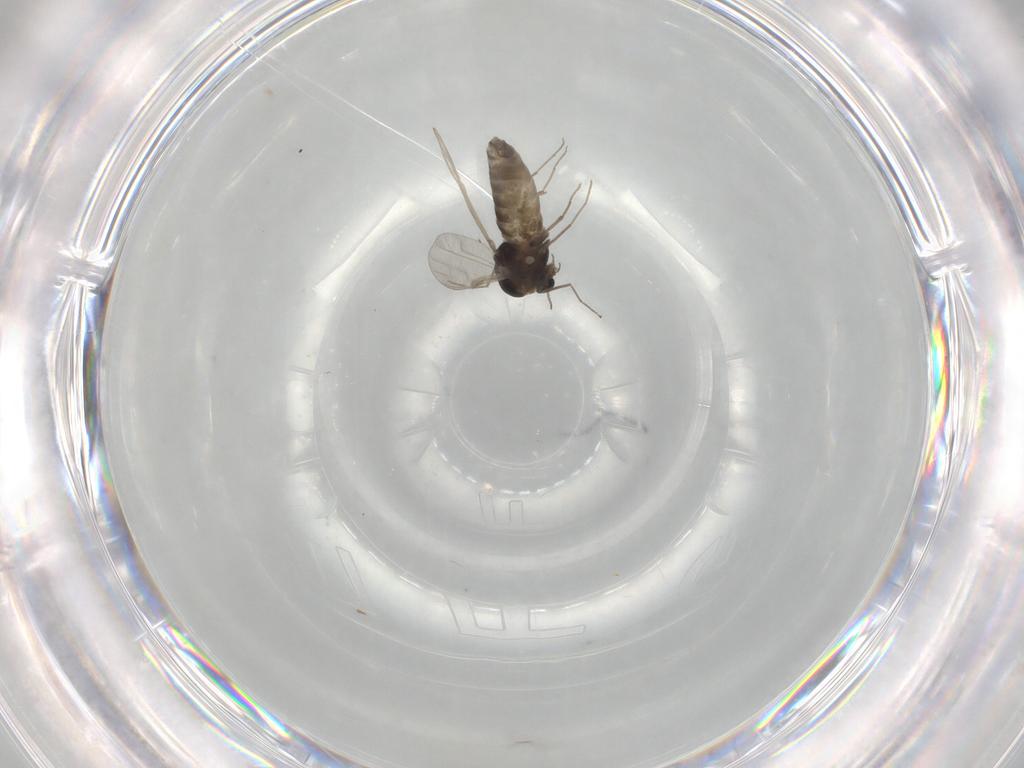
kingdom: Animalia
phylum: Arthropoda
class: Insecta
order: Diptera
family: Chironomidae
